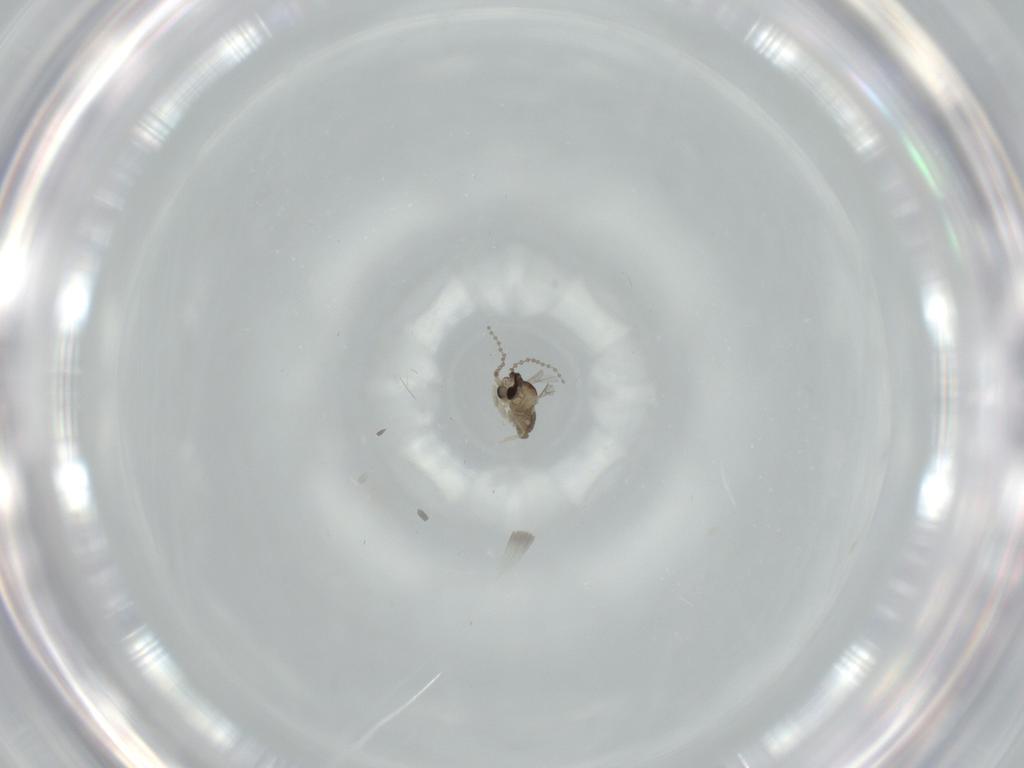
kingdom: Animalia
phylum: Arthropoda
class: Insecta
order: Diptera
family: Cecidomyiidae
